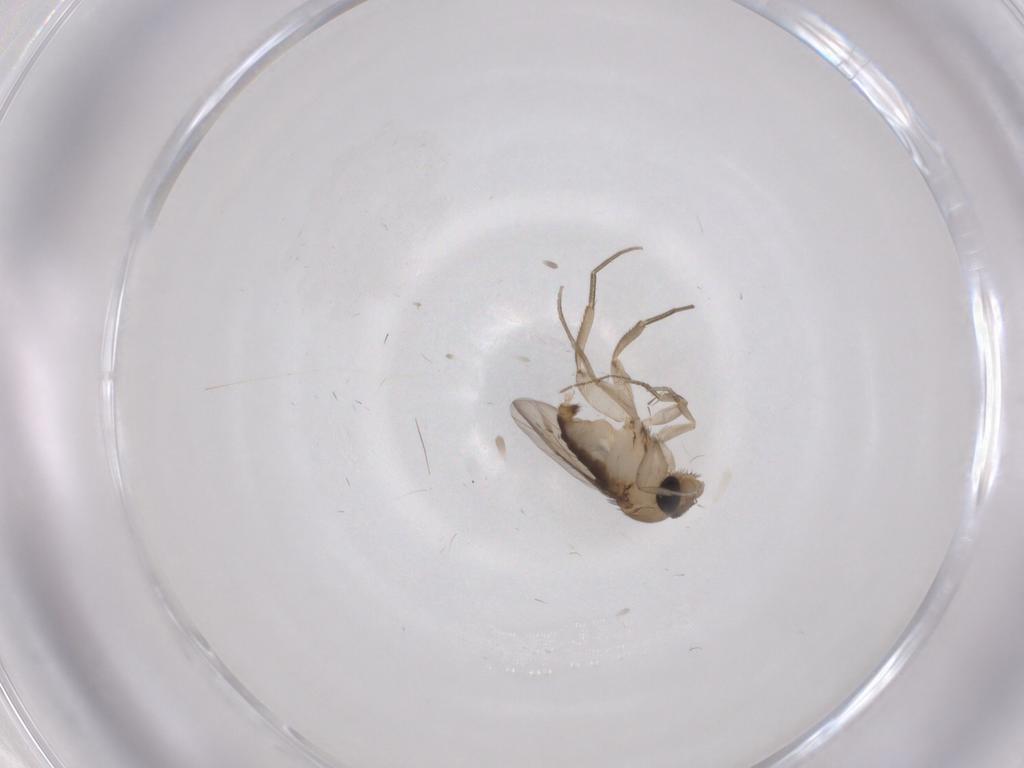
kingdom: Animalia
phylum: Arthropoda
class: Insecta
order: Diptera
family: Phoridae
